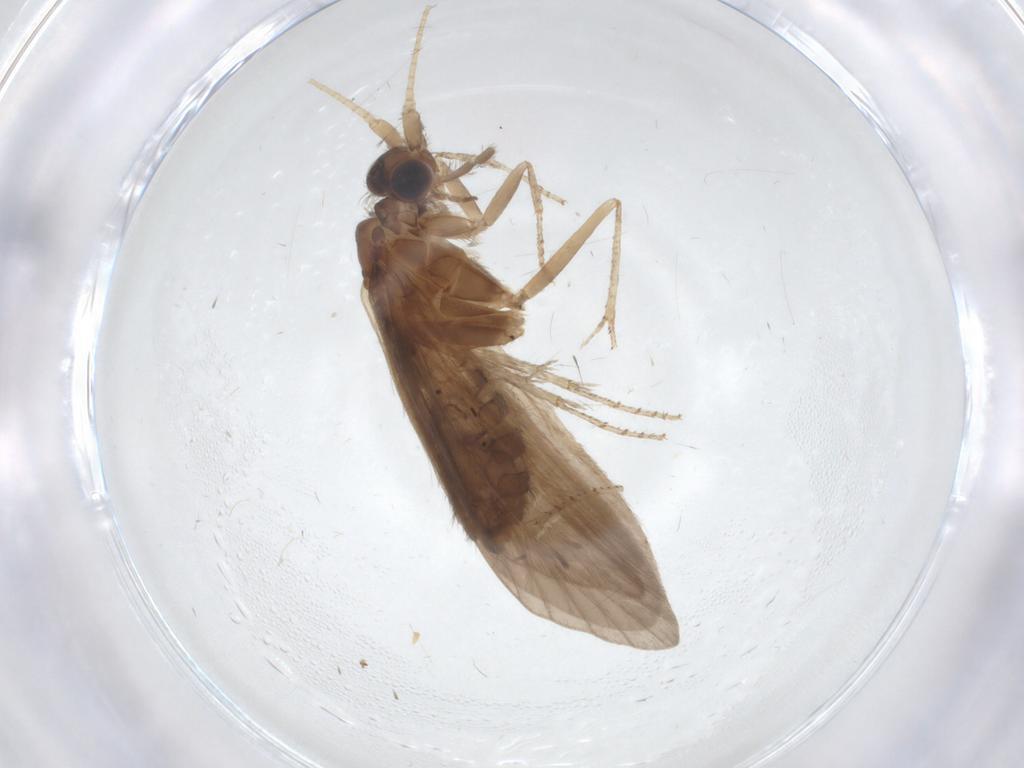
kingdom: Animalia
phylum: Arthropoda
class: Insecta
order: Trichoptera
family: Helicopsychidae
